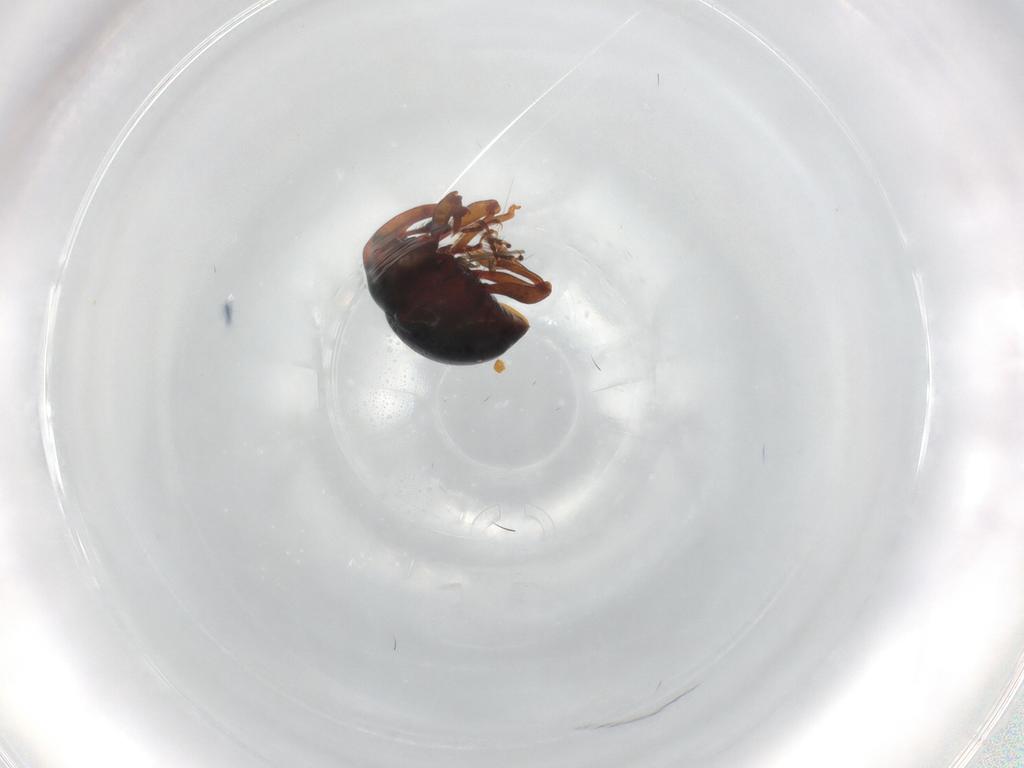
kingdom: Animalia
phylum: Arthropoda
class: Insecta
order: Coleoptera
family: Curculionidae
